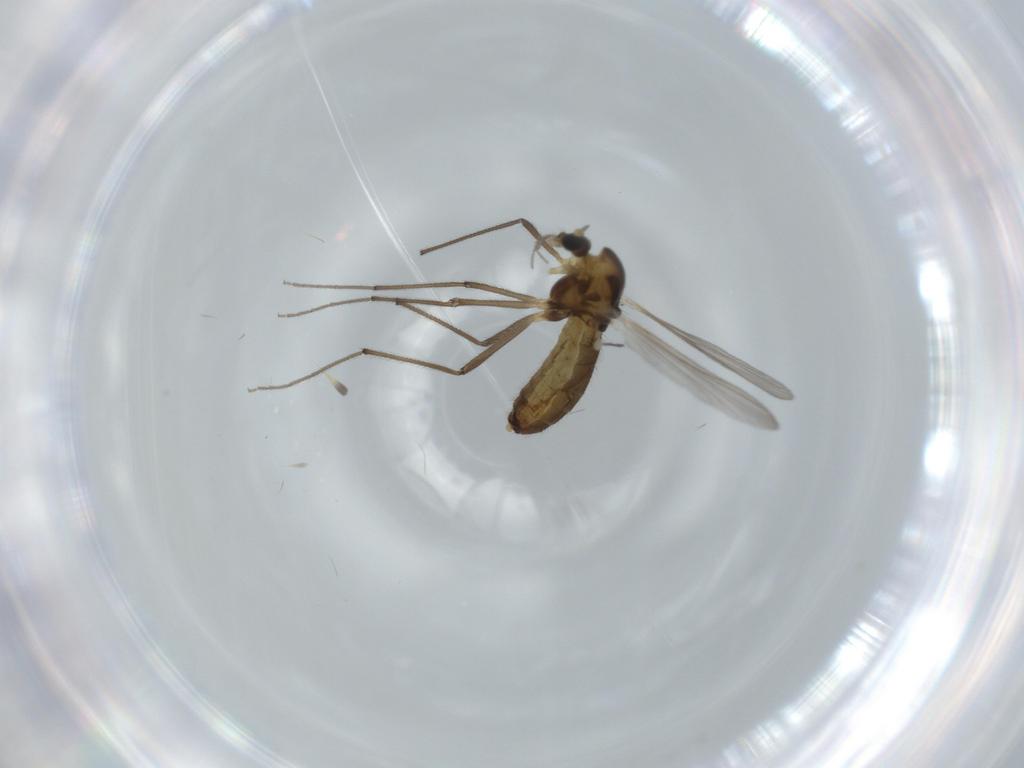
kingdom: Animalia
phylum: Arthropoda
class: Insecta
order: Diptera
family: Chironomidae
